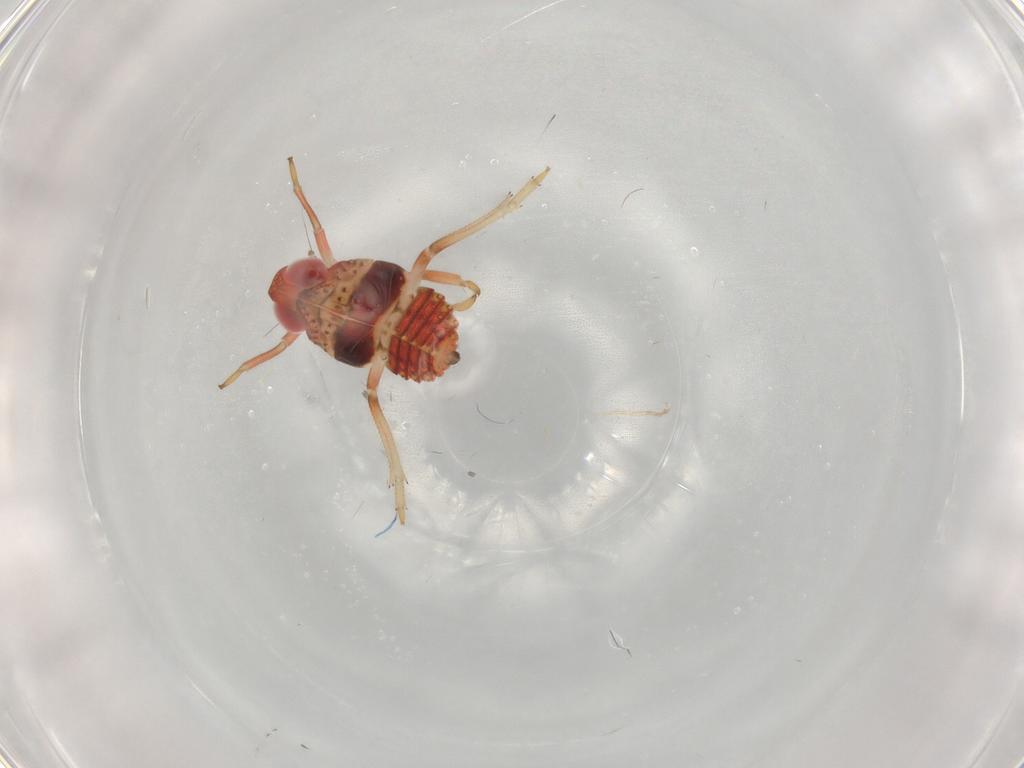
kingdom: Animalia
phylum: Arthropoda
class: Insecta
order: Hemiptera
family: Issidae
